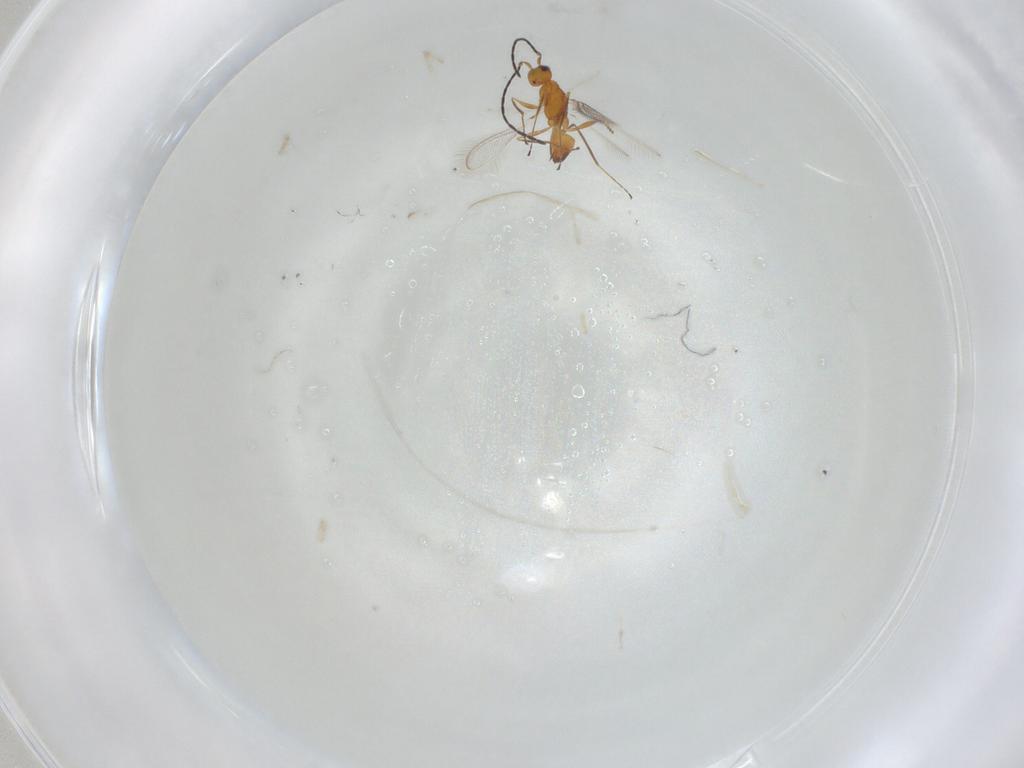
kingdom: Animalia
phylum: Arthropoda
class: Insecta
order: Hymenoptera
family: Mymaridae
